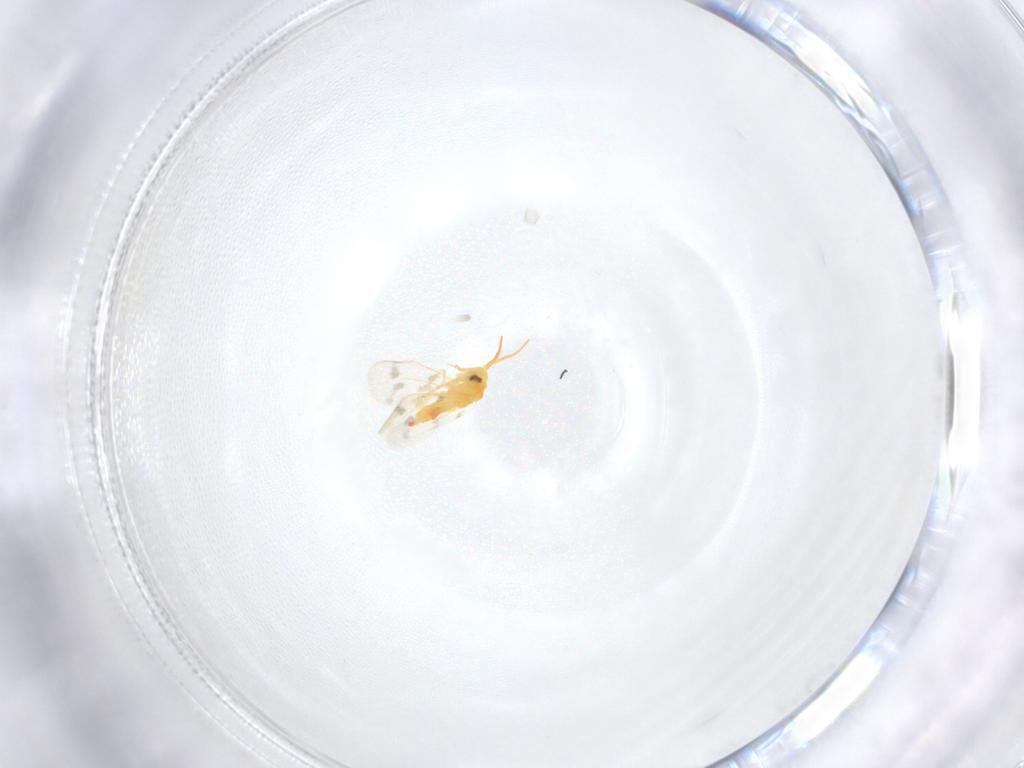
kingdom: Animalia
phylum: Arthropoda
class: Insecta
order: Hemiptera
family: Aleyrodidae
